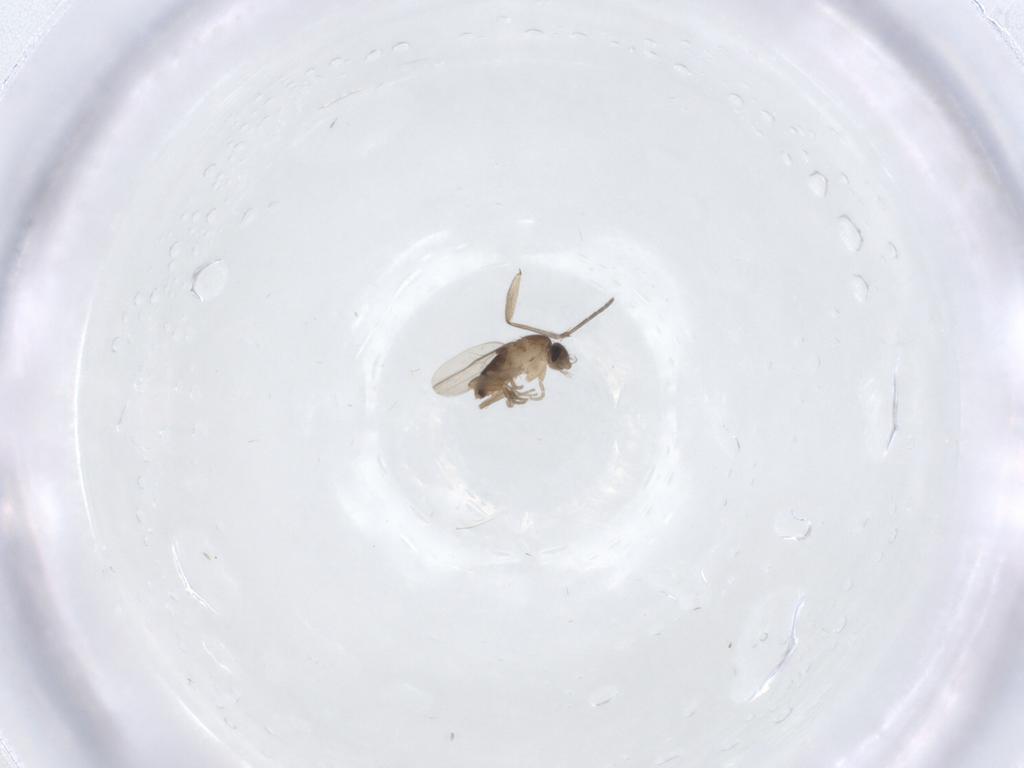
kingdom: Animalia
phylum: Arthropoda
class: Insecta
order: Diptera
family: Sciaridae
